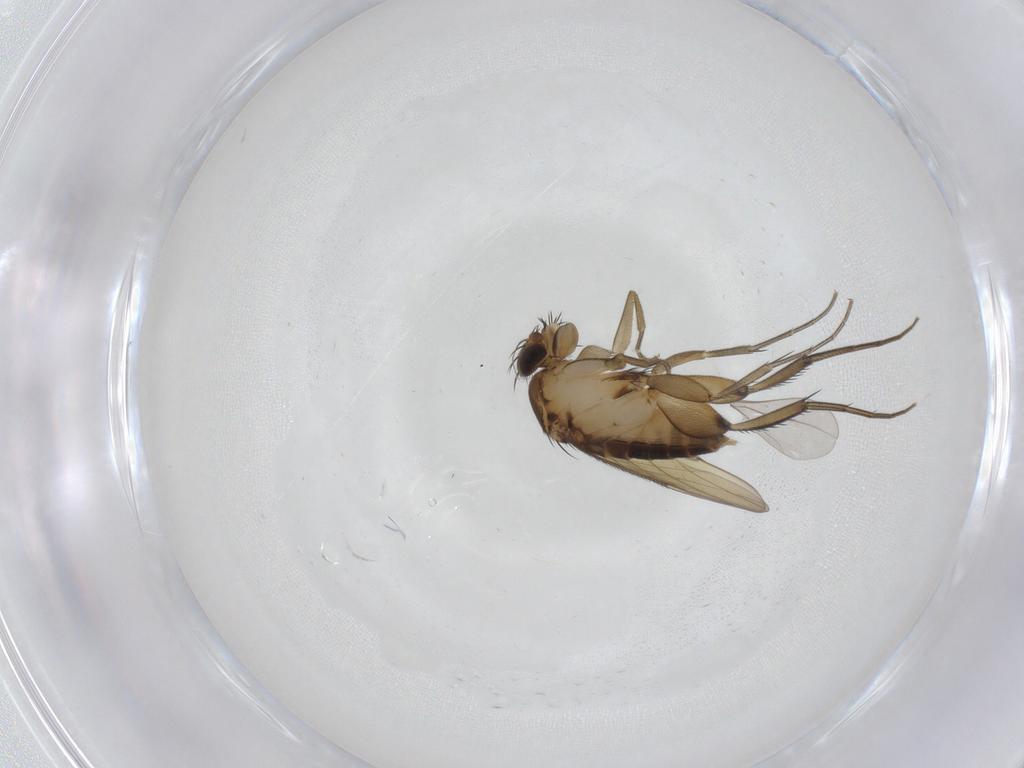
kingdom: Animalia
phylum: Arthropoda
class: Insecta
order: Diptera
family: Phoridae
